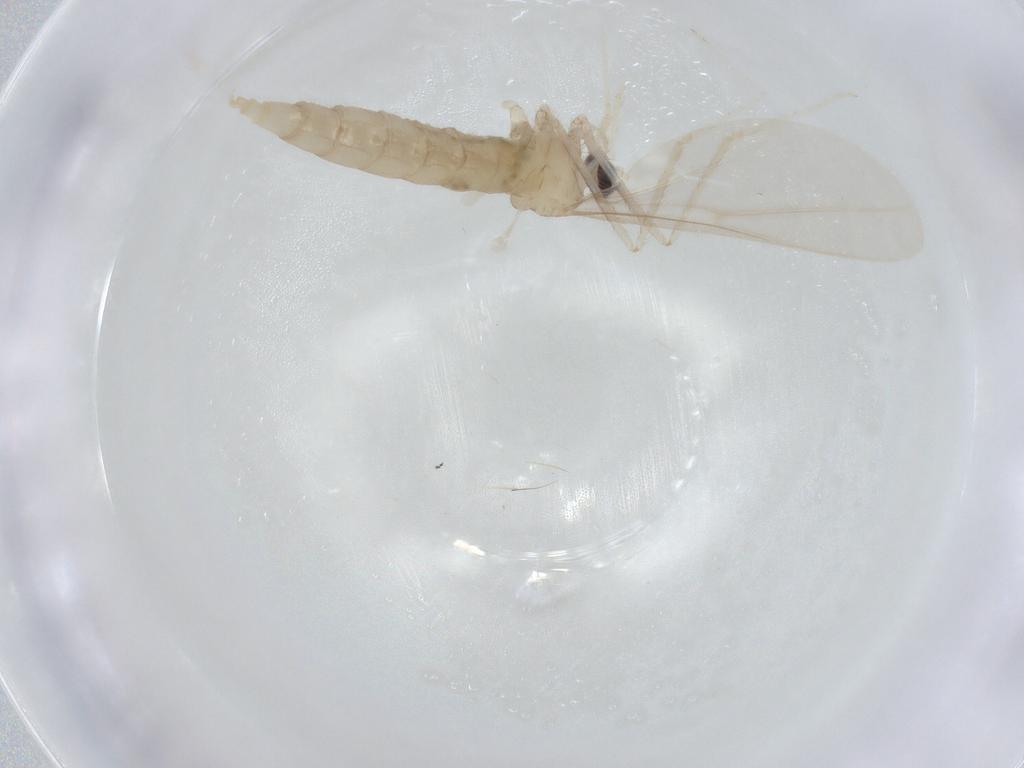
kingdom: Animalia
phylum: Arthropoda
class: Insecta
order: Diptera
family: Cecidomyiidae
